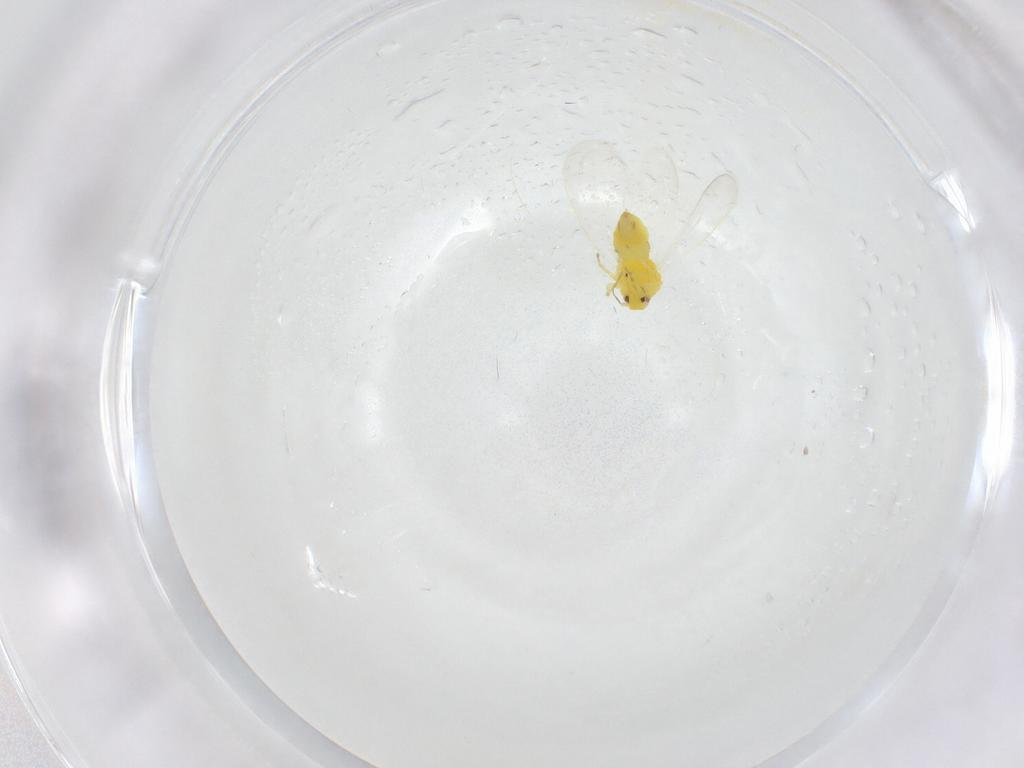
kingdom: Animalia
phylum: Arthropoda
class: Insecta
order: Hemiptera
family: Aleyrodidae
